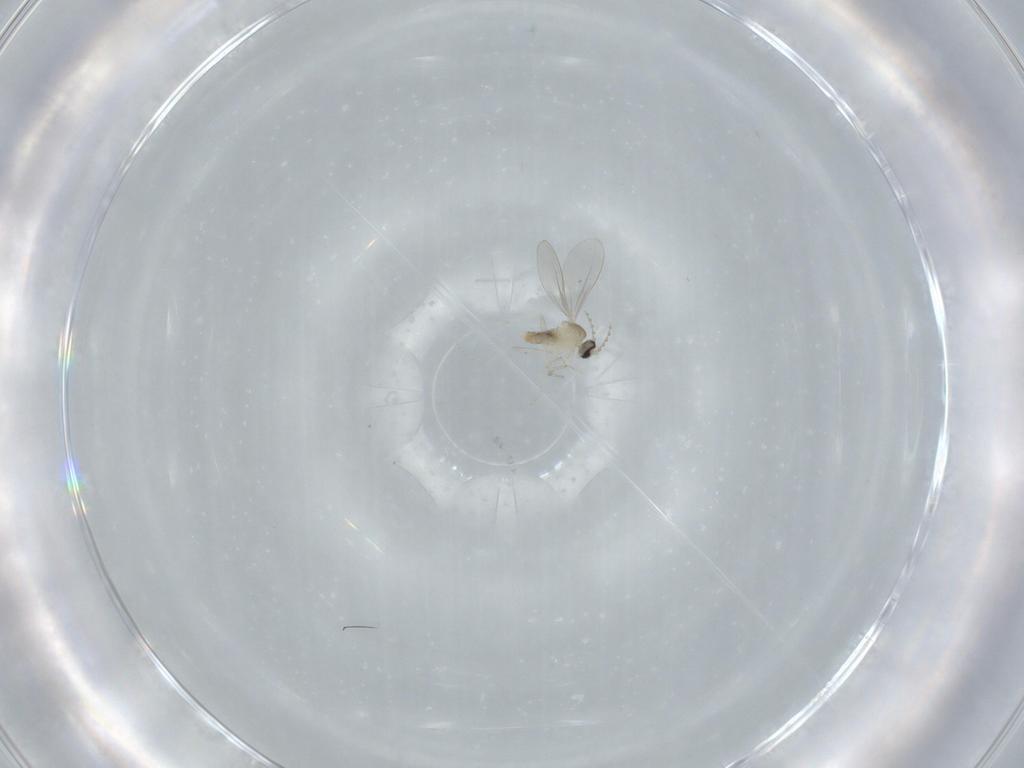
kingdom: Animalia
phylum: Arthropoda
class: Insecta
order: Diptera
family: Cecidomyiidae
